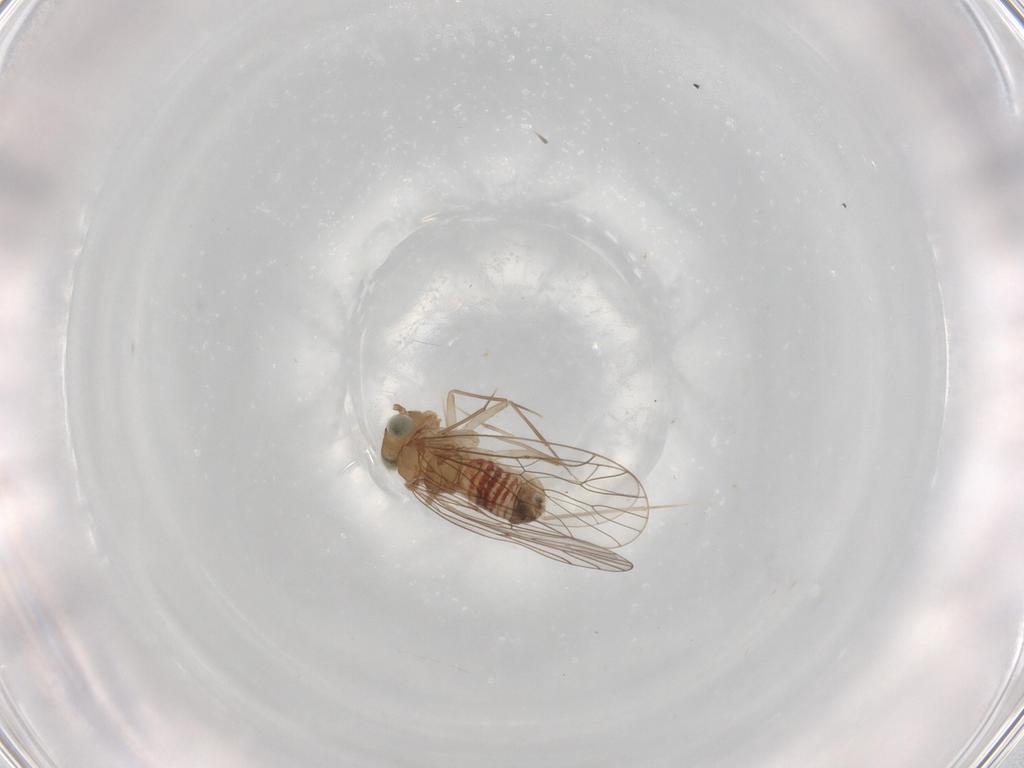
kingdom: Animalia
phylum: Arthropoda
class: Insecta
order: Psocodea
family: Amphientomidae
